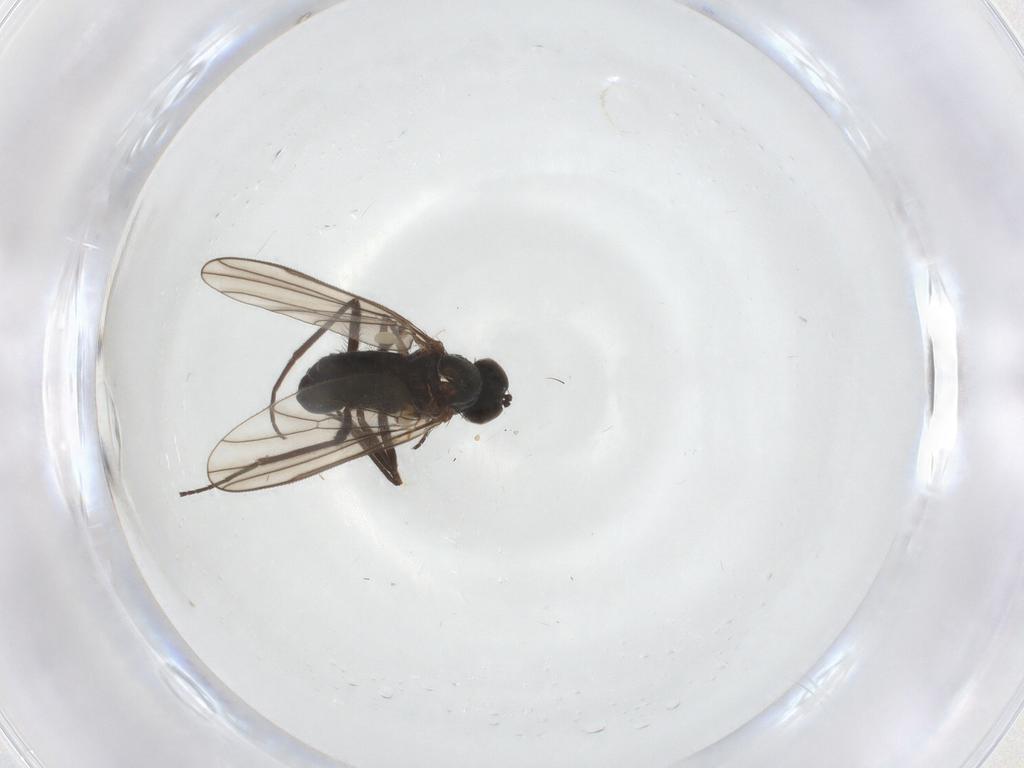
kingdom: Animalia
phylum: Arthropoda
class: Insecta
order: Diptera
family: Dolichopodidae
